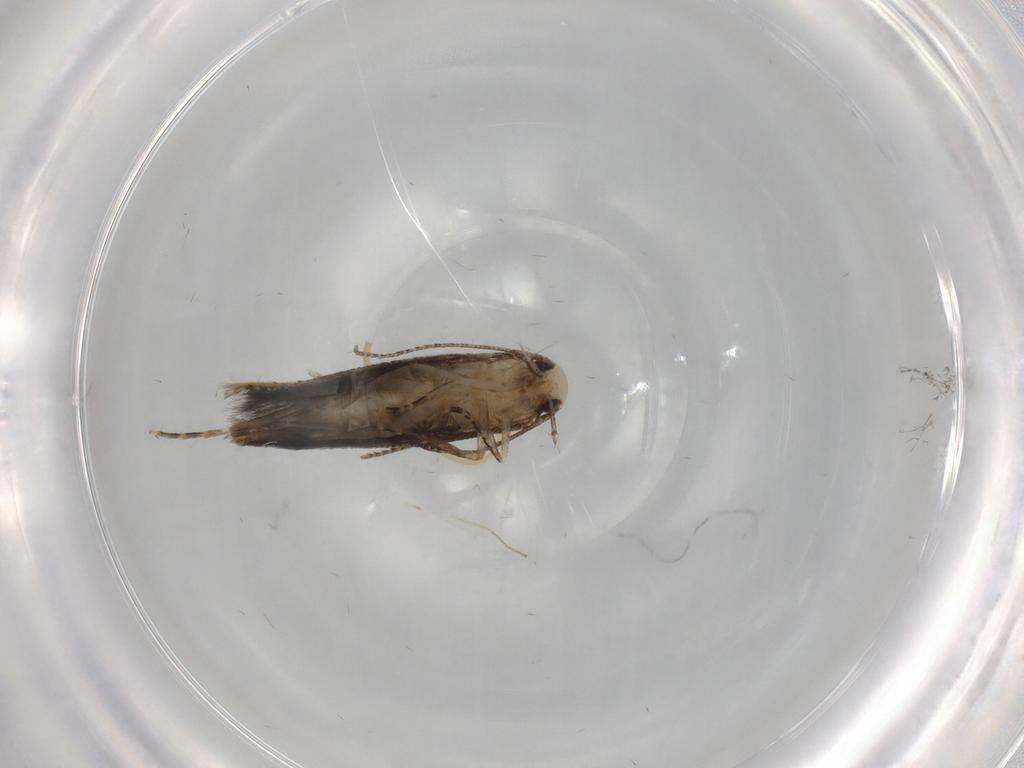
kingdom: Animalia
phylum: Arthropoda
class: Insecta
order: Lepidoptera
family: Cosmopterigidae
